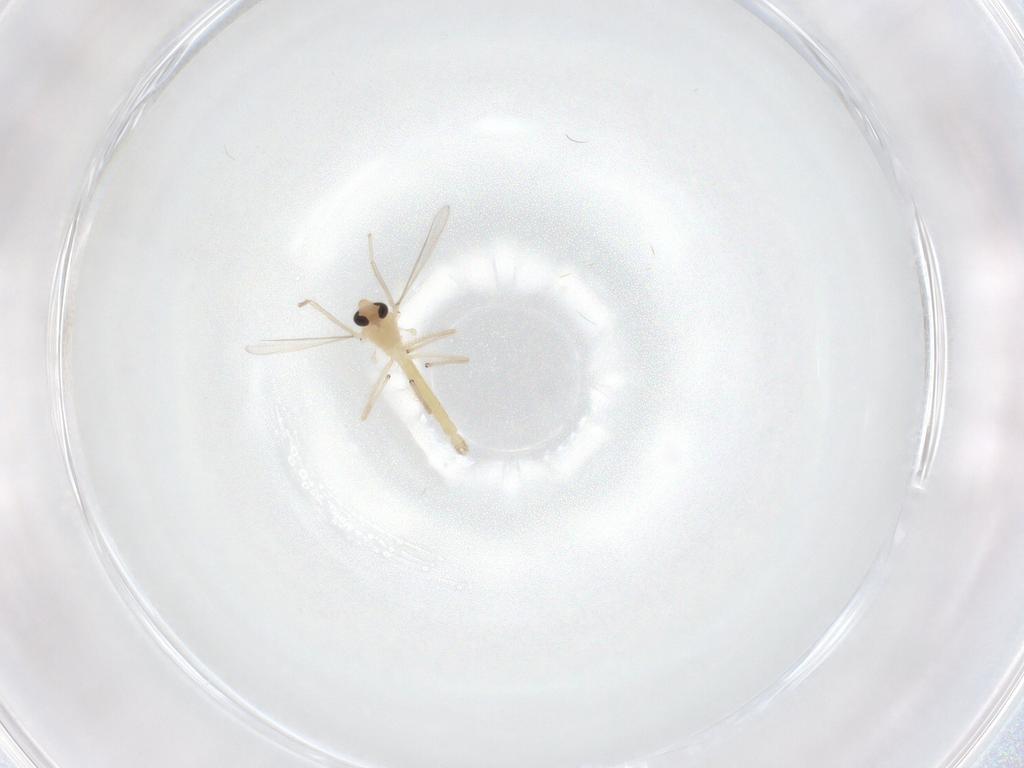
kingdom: Animalia
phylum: Arthropoda
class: Insecta
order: Diptera
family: Chironomidae
